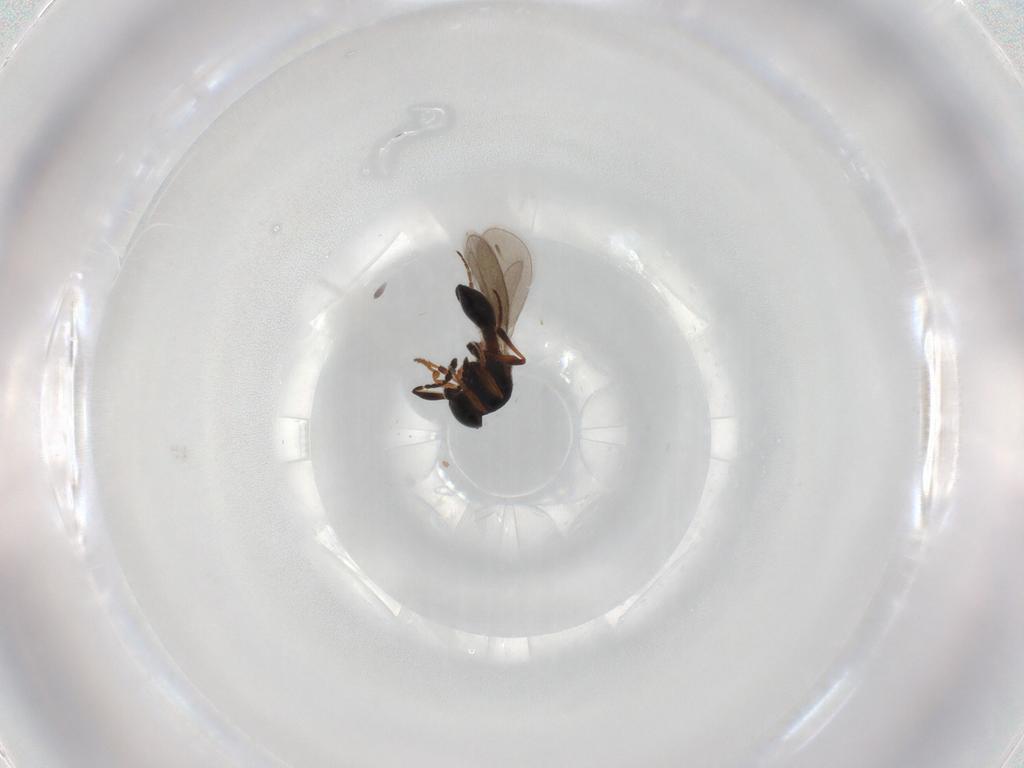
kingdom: Animalia
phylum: Arthropoda
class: Insecta
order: Hymenoptera
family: Platygastridae
